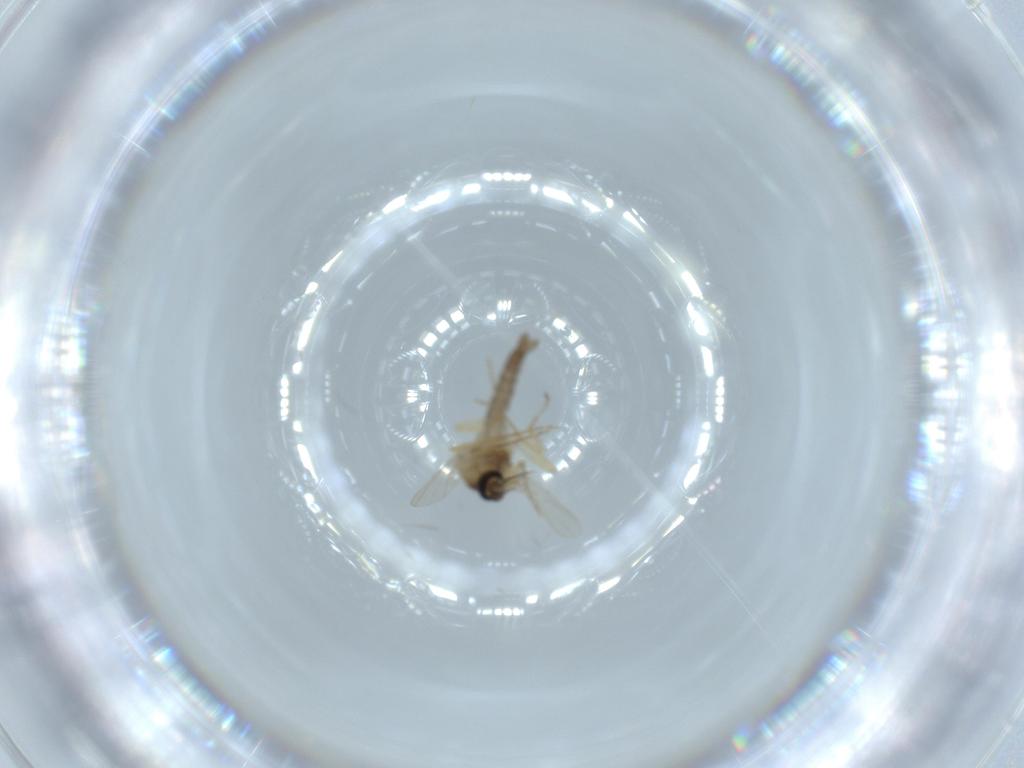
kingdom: Animalia
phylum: Arthropoda
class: Insecta
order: Diptera
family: Ceratopogonidae
